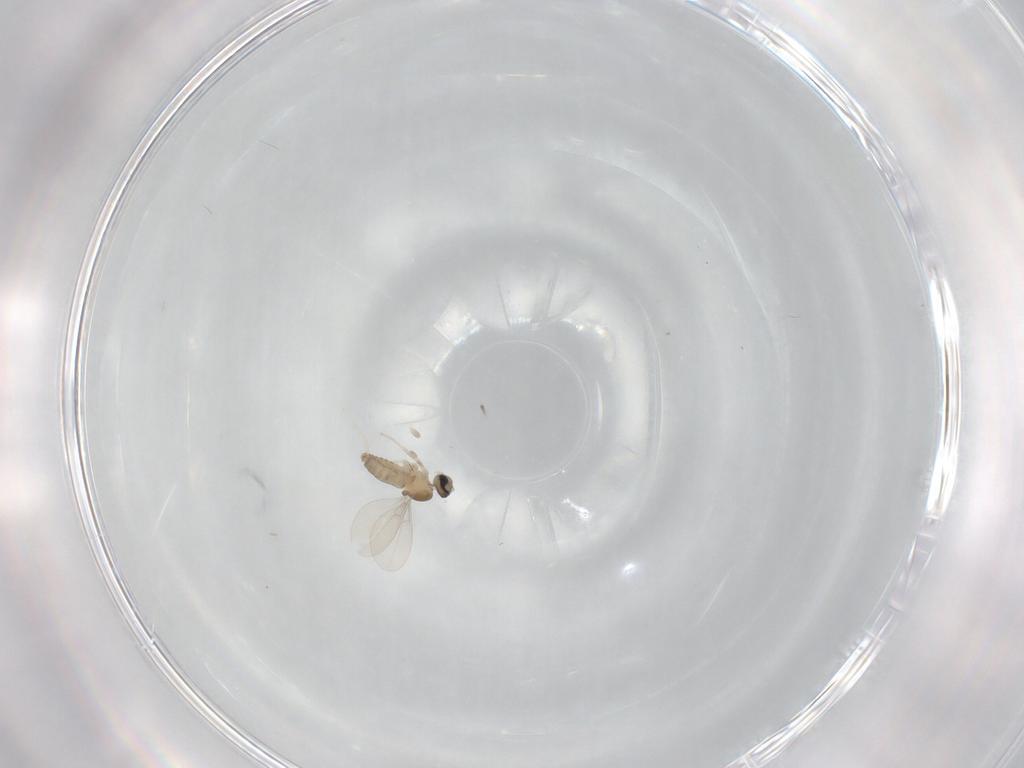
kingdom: Animalia
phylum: Arthropoda
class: Insecta
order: Diptera
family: Cecidomyiidae
